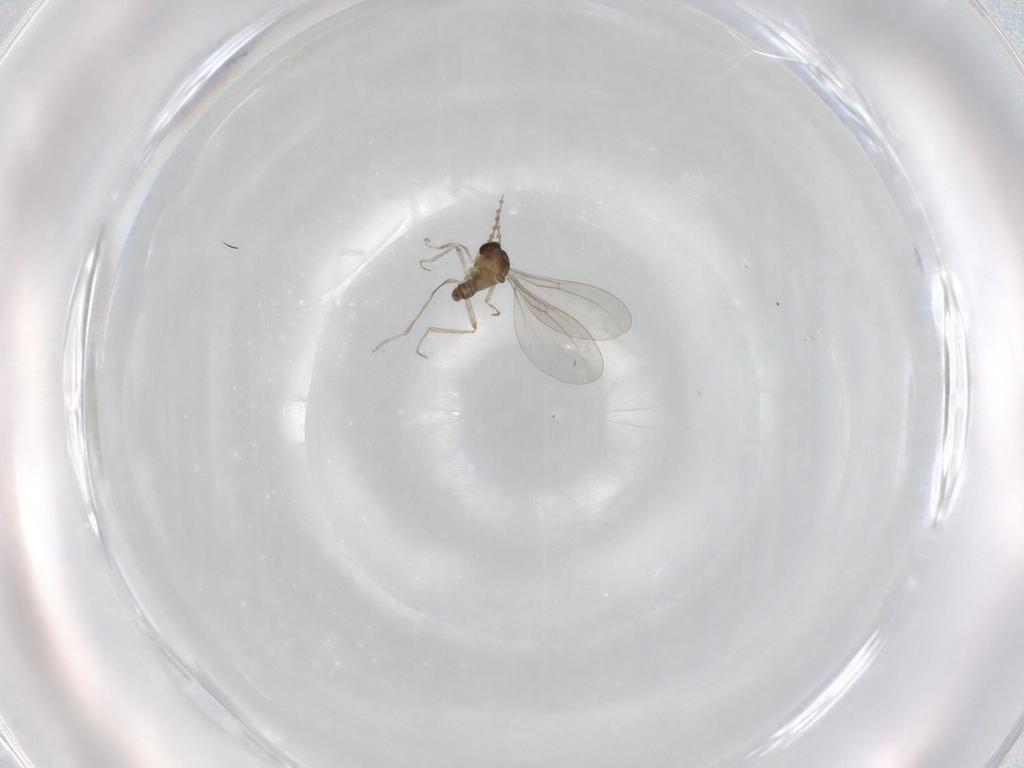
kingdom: Animalia
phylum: Arthropoda
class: Insecta
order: Diptera
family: Cecidomyiidae
